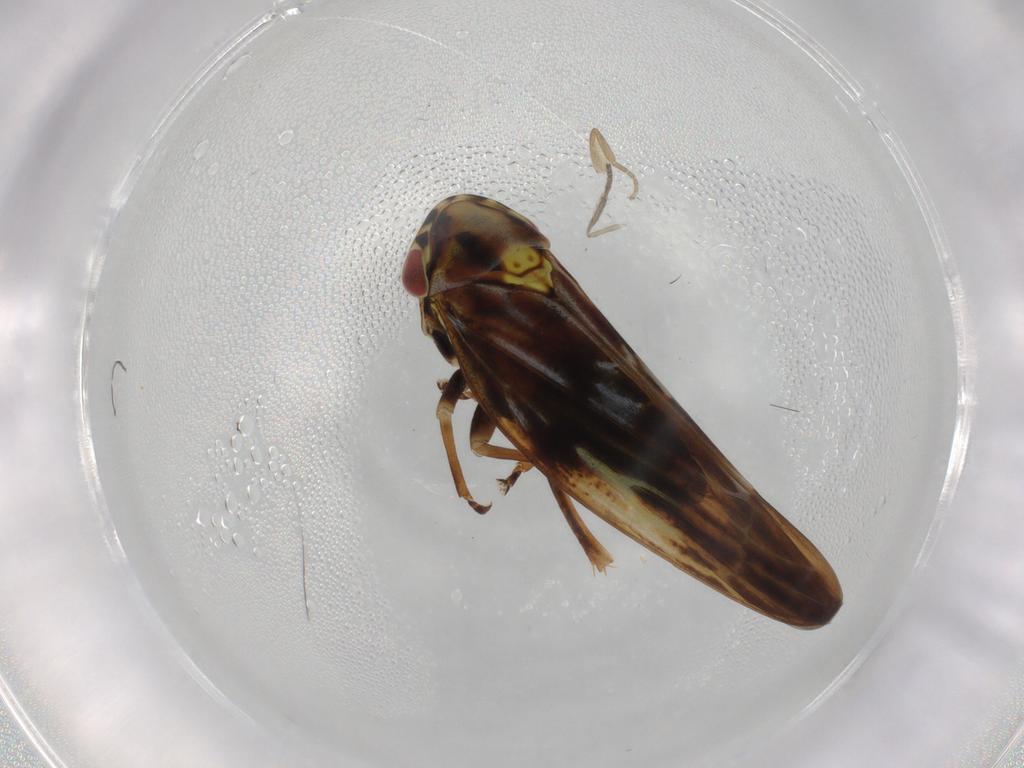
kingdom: Animalia
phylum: Arthropoda
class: Insecta
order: Hemiptera
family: Cicadellidae
